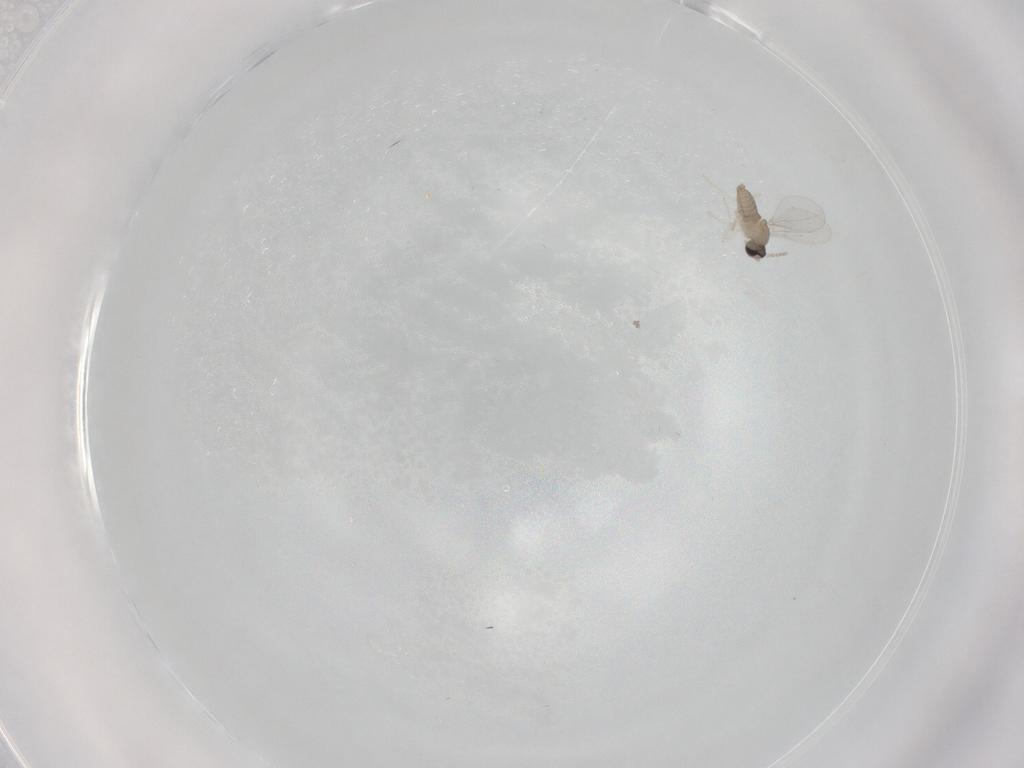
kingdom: Animalia
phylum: Arthropoda
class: Insecta
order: Diptera
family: Cecidomyiidae
